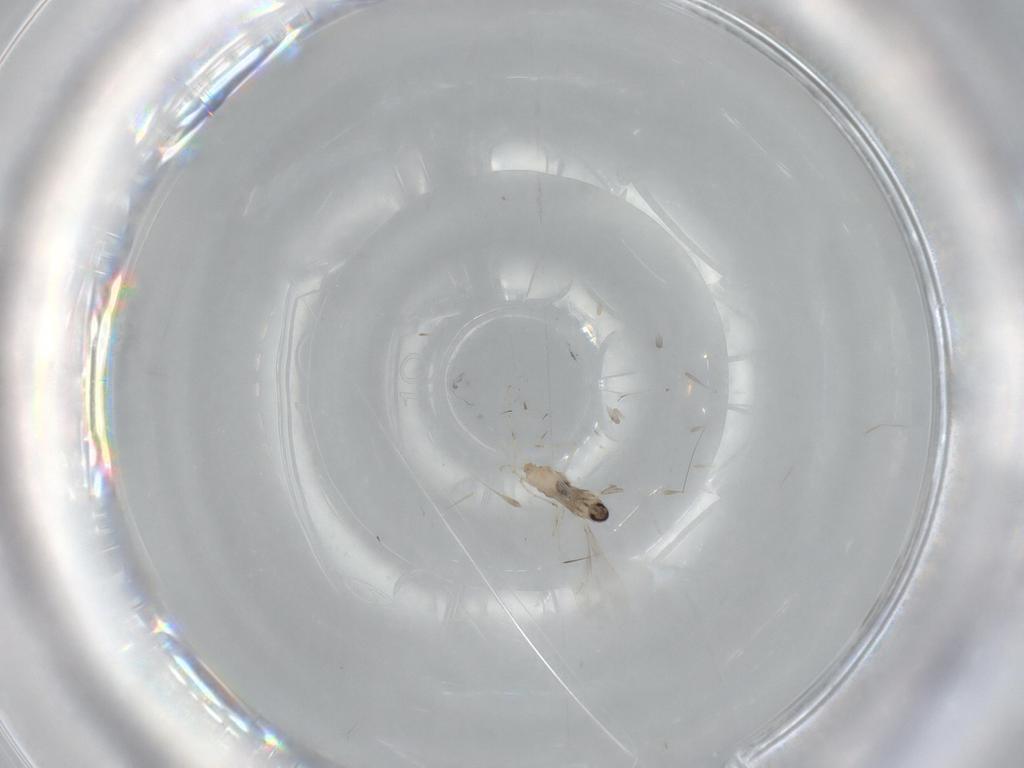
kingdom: Animalia
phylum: Arthropoda
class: Insecta
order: Diptera
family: Cecidomyiidae
